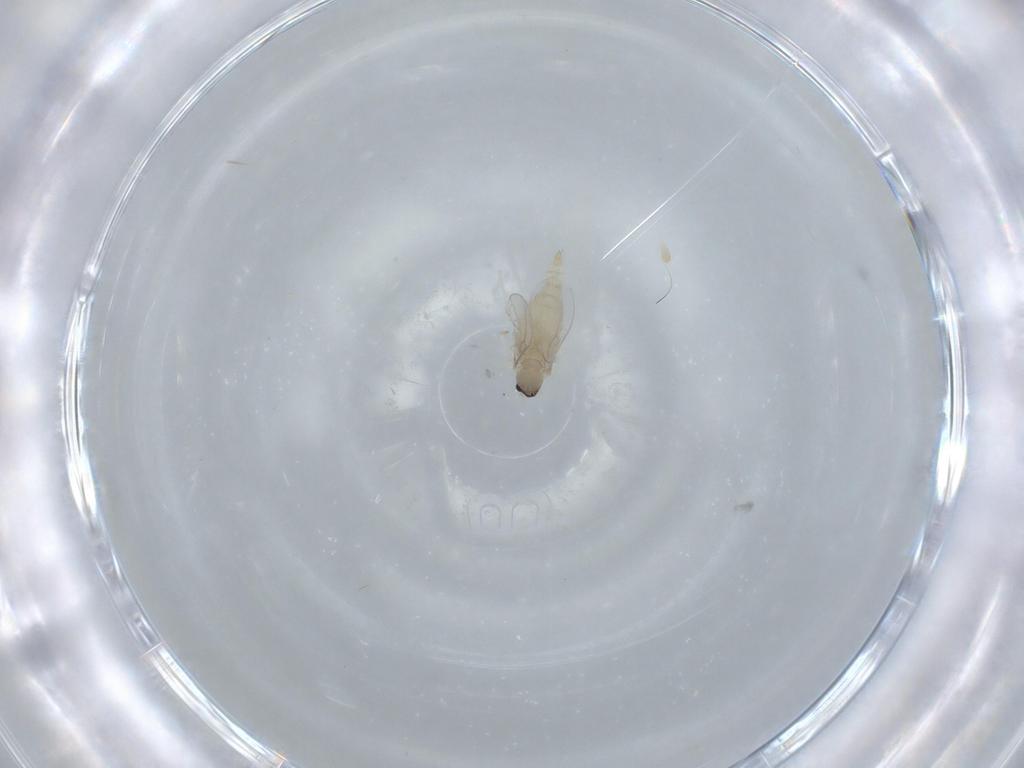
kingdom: Animalia
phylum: Arthropoda
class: Insecta
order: Diptera
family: Cecidomyiidae
